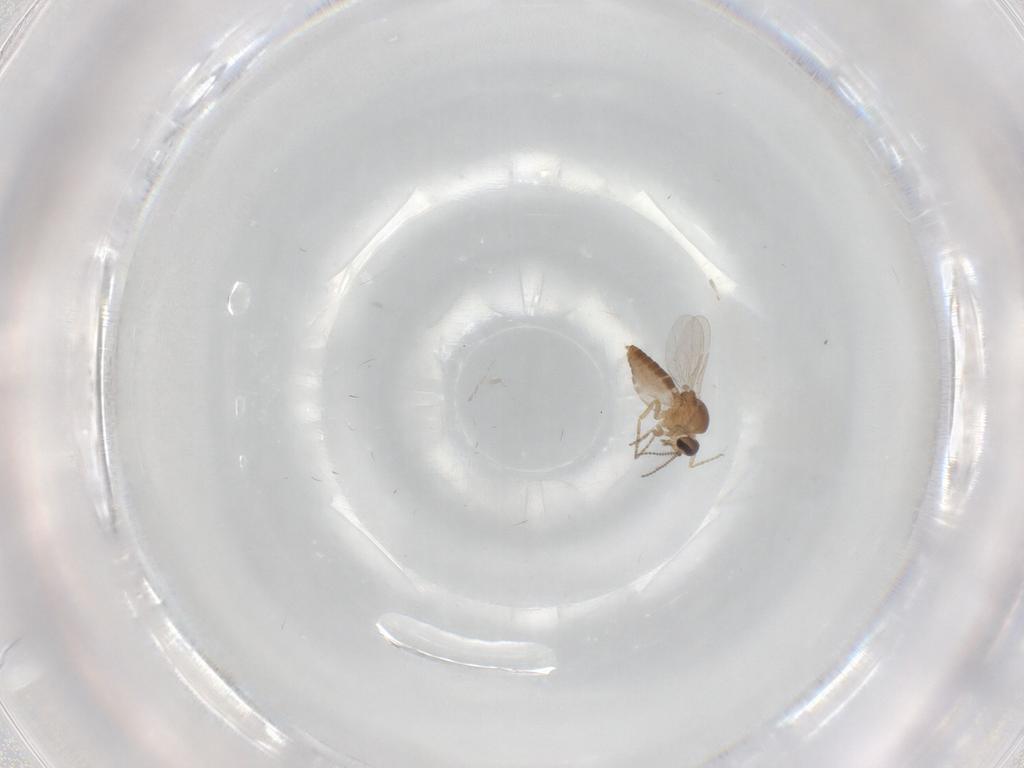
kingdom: Animalia
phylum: Arthropoda
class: Insecta
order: Diptera
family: Ceratopogonidae
